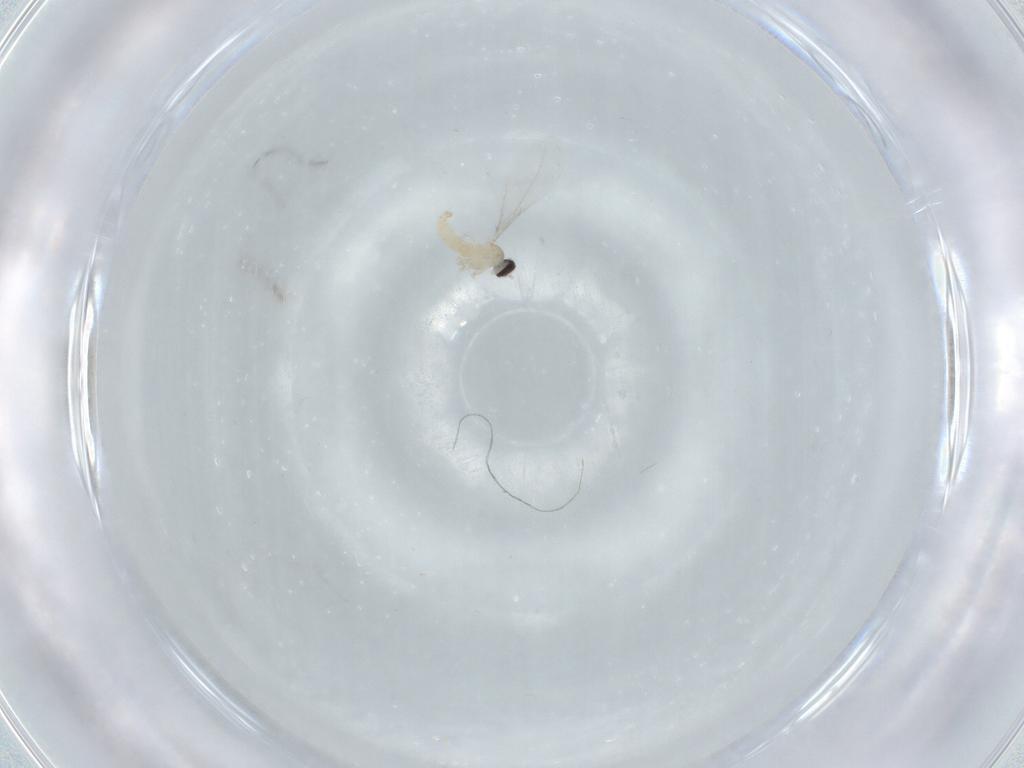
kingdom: Animalia
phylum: Arthropoda
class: Insecta
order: Diptera
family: Cecidomyiidae
